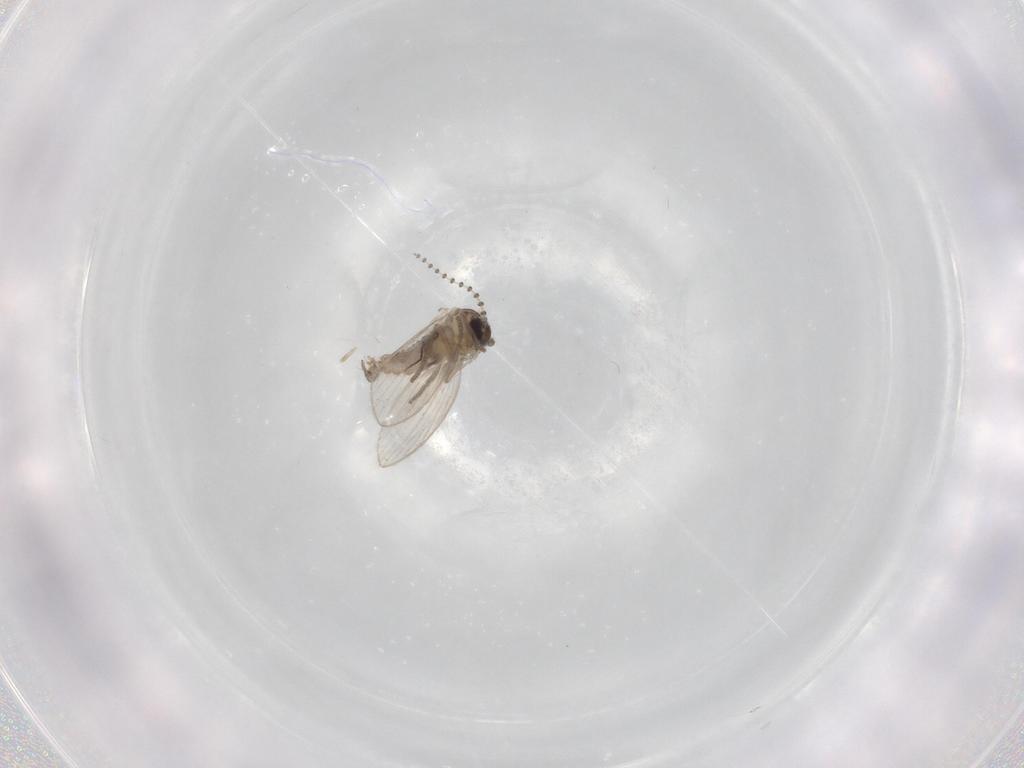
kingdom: Animalia
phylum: Arthropoda
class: Insecta
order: Diptera
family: Psychodidae
